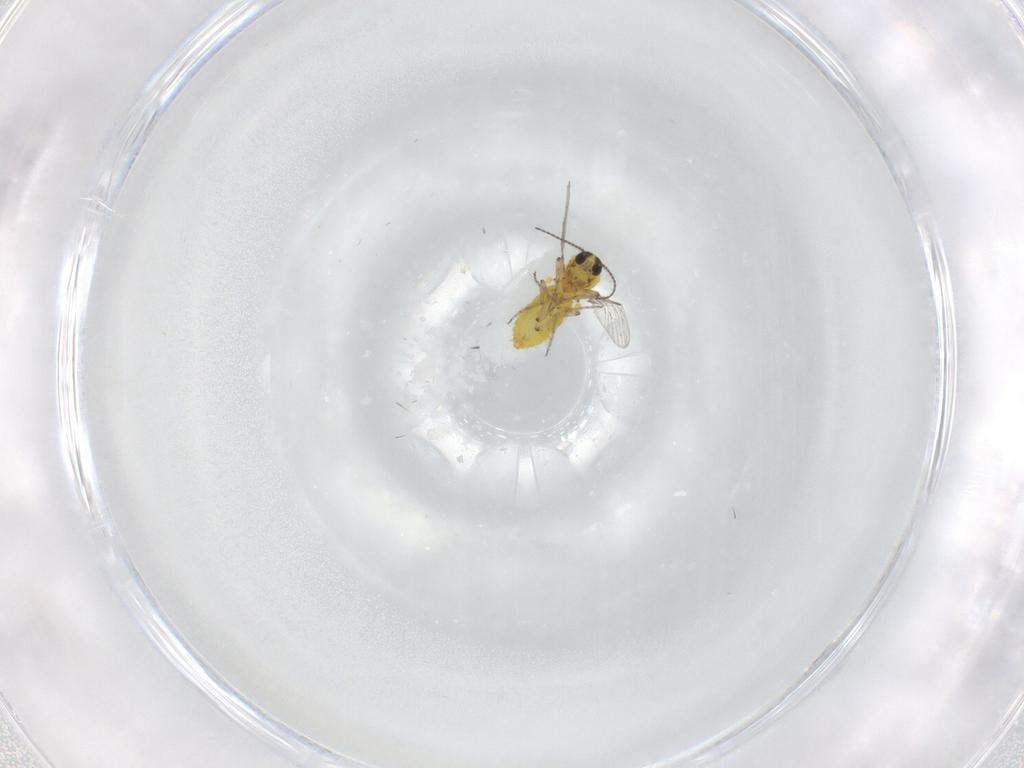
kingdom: Animalia
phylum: Arthropoda
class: Insecta
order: Diptera
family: Ceratopogonidae
